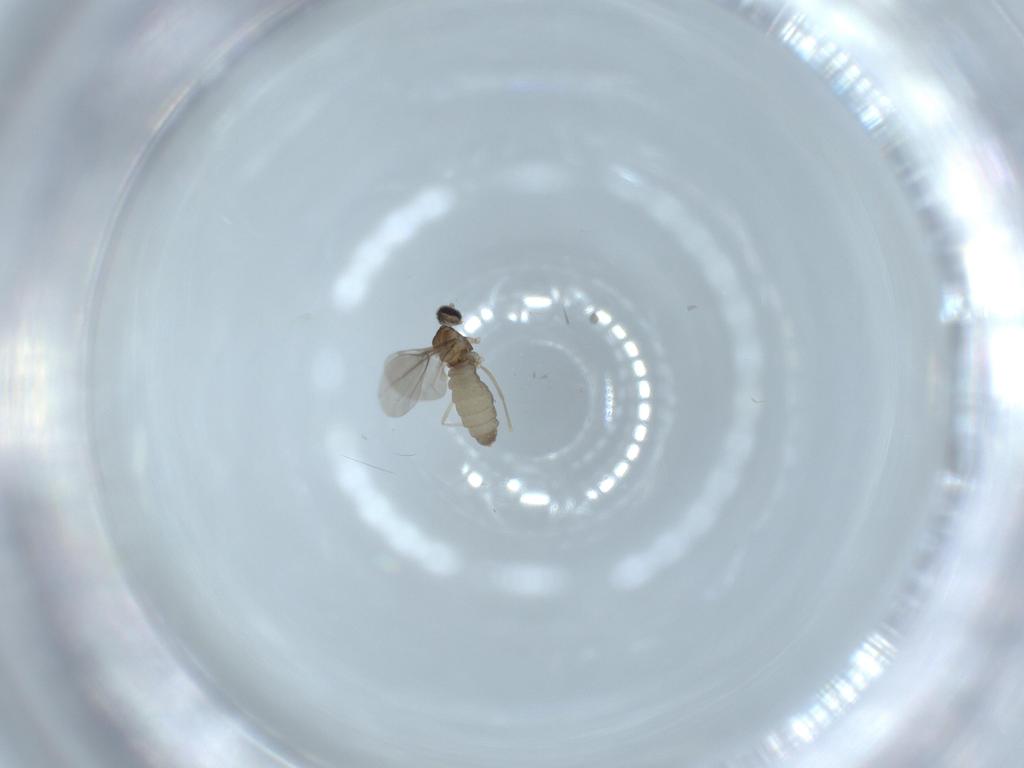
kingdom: Animalia
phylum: Arthropoda
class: Insecta
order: Diptera
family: Cecidomyiidae
